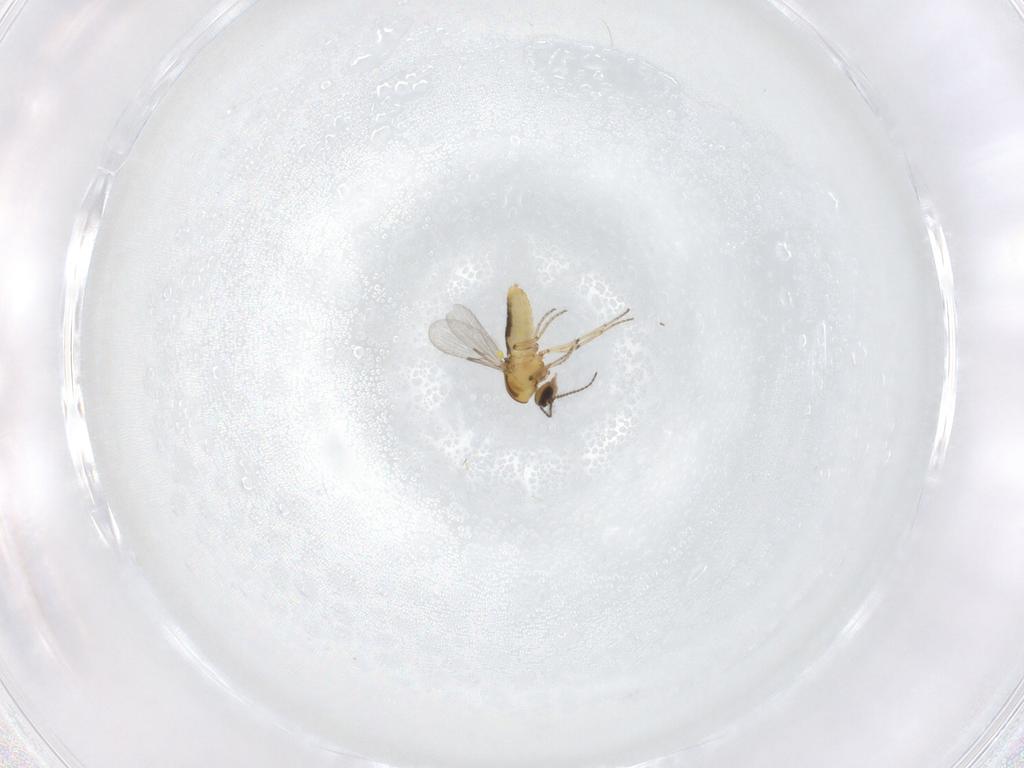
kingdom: Animalia
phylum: Arthropoda
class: Insecta
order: Diptera
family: Ceratopogonidae
